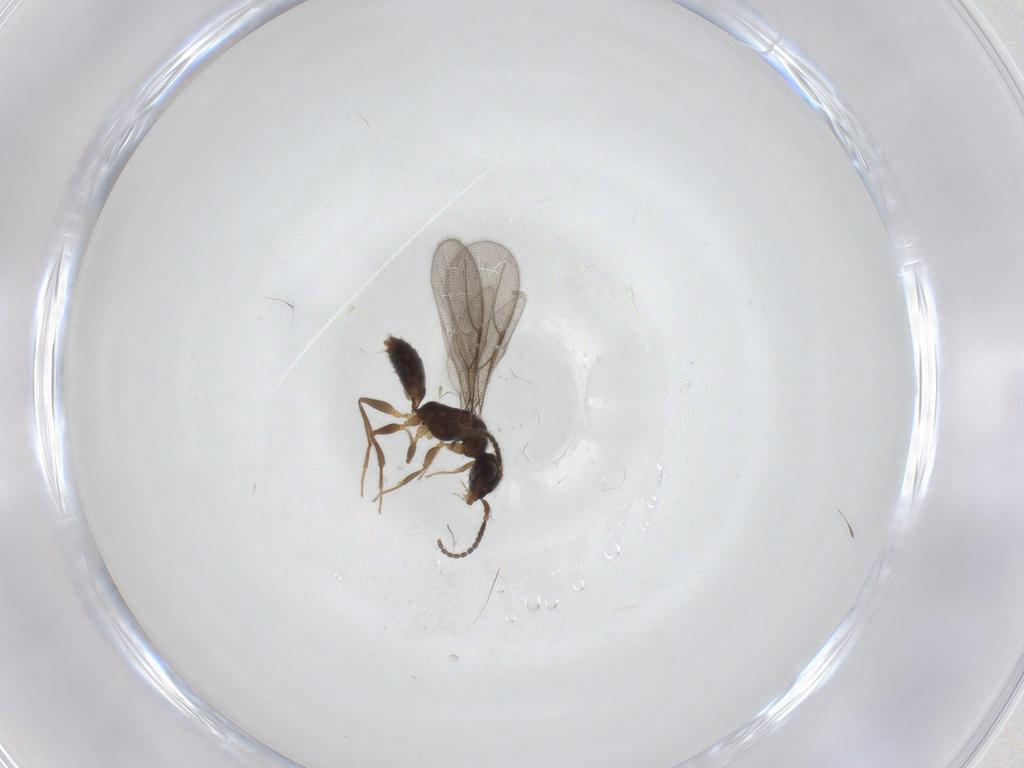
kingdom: Animalia
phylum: Arthropoda
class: Insecta
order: Hymenoptera
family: Bethylidae
